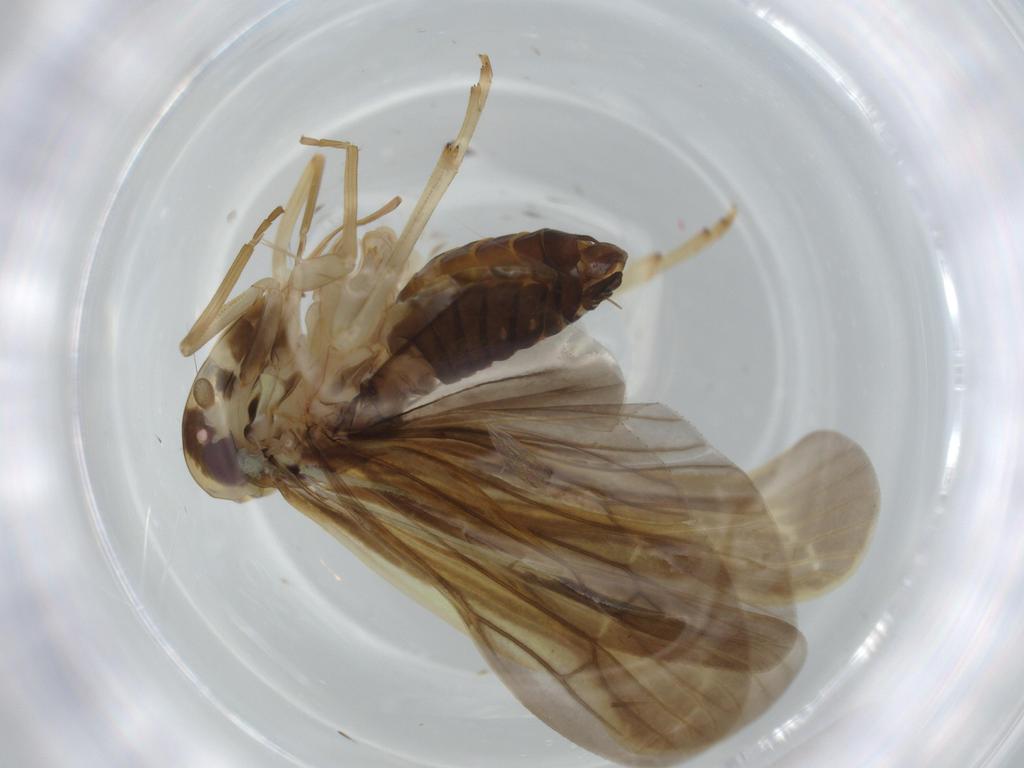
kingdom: Animalia
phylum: Arthropoda
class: Insecta
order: Hemiptera
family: Achilidae
